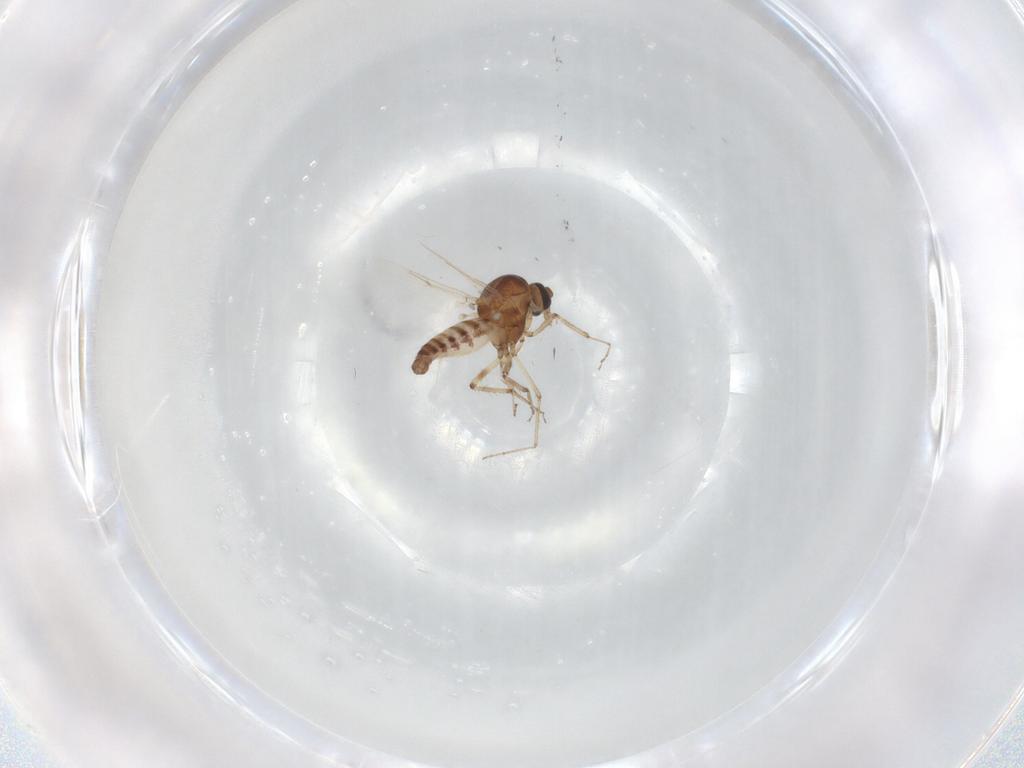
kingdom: Animalia
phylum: Arthropoda
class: Insecta
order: Diptera
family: Ceratopogonidae
